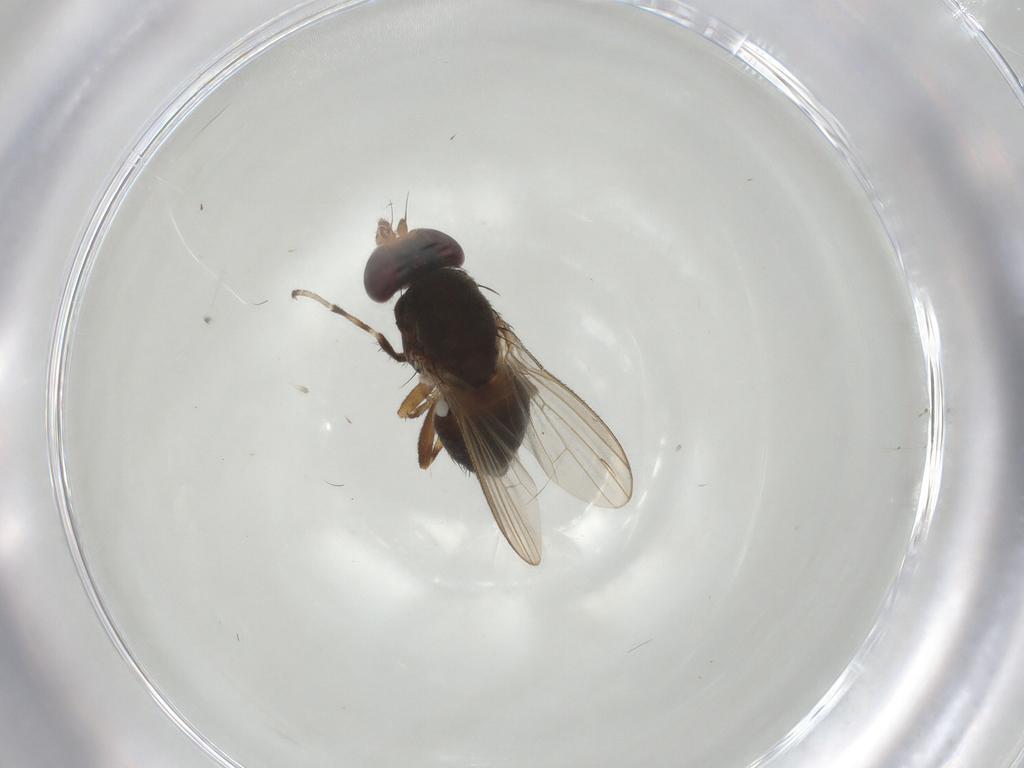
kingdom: Animalia
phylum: Arthropoda
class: Insecta
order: Diptera
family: Heleomyzidae
